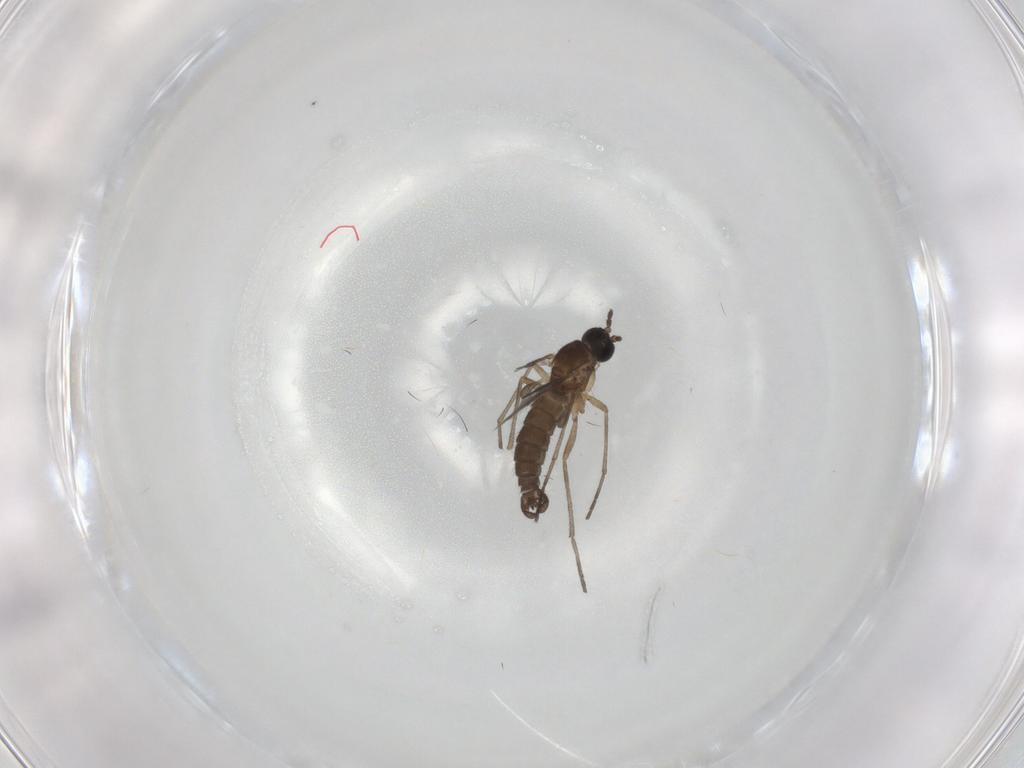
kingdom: Animalia
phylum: Arthropoda
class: Insecta
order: Diptera
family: Sciaridae
